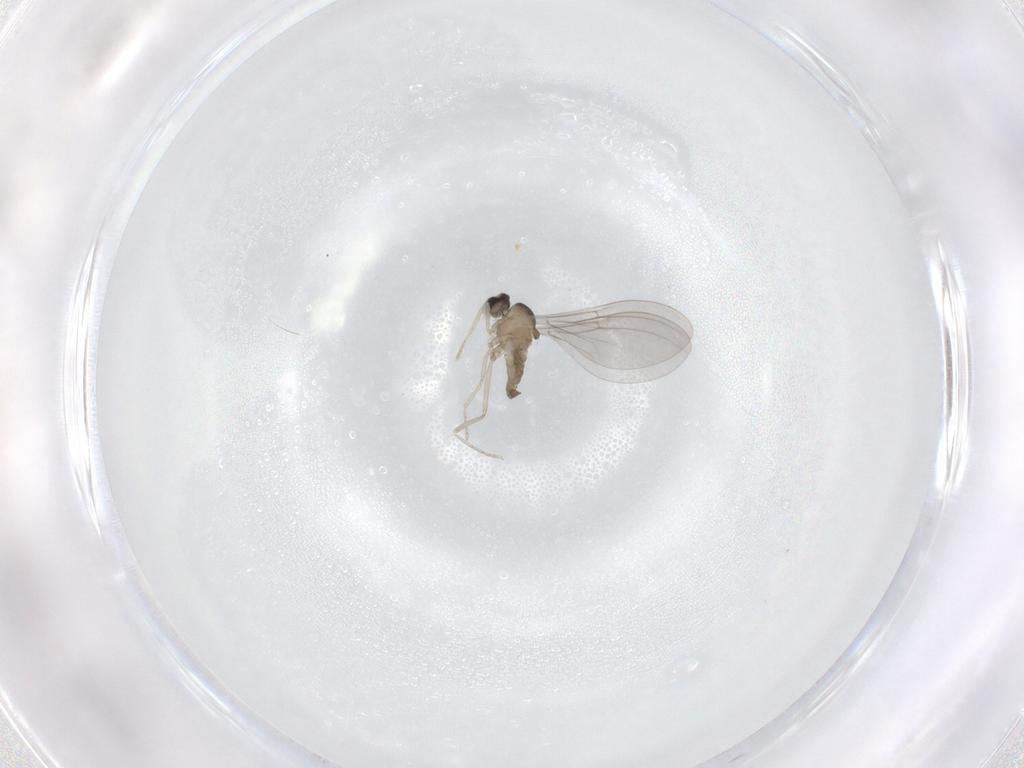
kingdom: Animalia
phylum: Arthropoda
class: Insecta
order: Diptera
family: Cecidomyiidae
